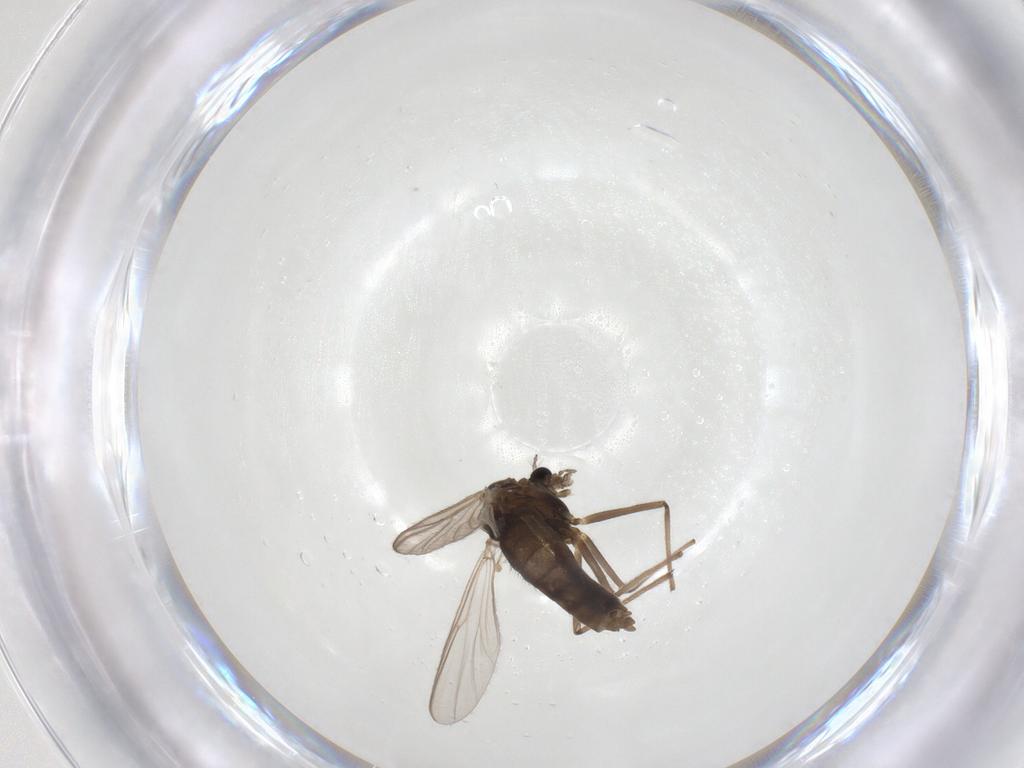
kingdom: Animalia
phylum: Arthropoda
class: Insecta
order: Diptera
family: Chironomidae
